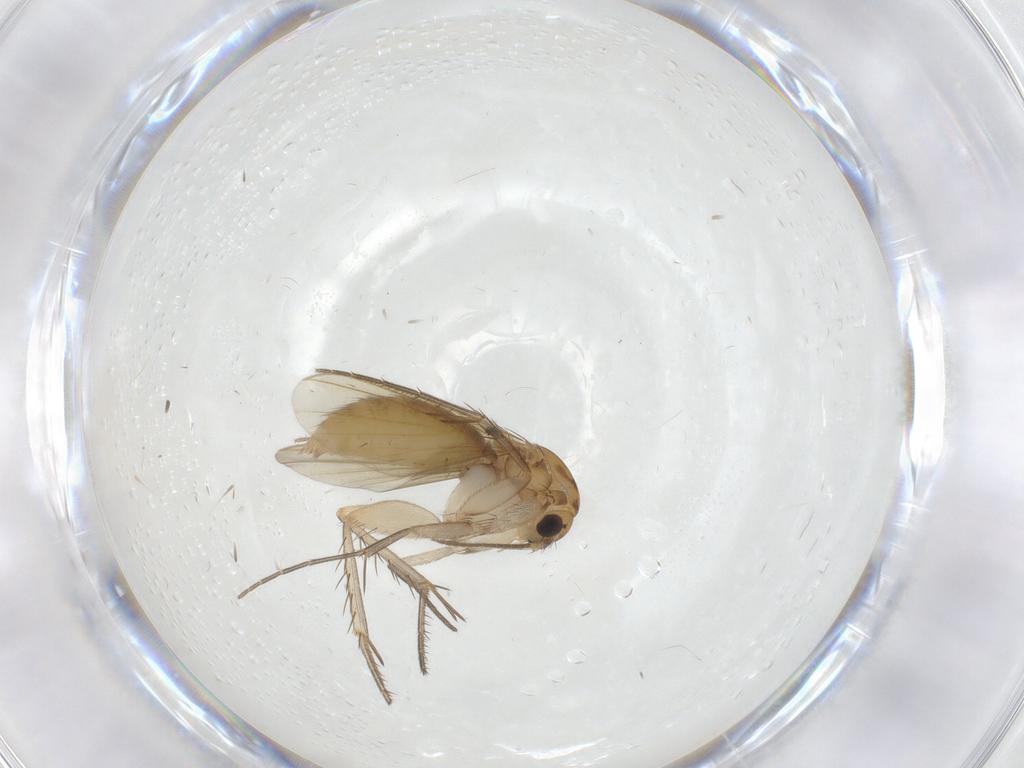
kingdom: Animalia
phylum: Arthropoda
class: Insecta
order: Diptera
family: Mycetophilidae
